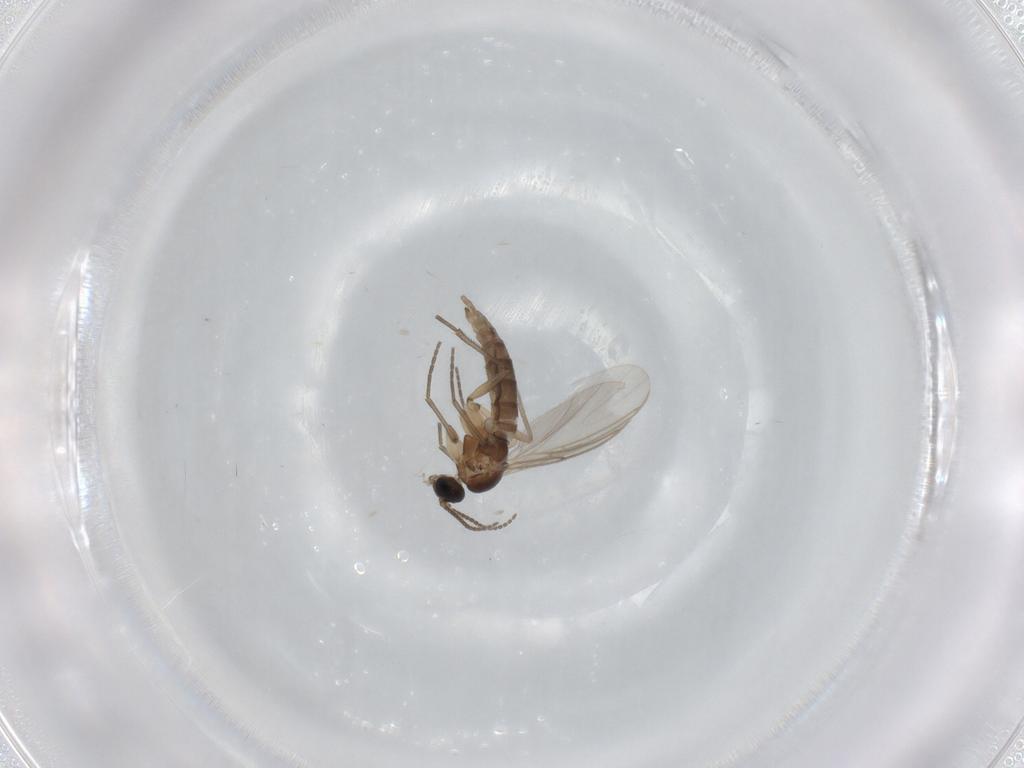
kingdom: Animalia
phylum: Arthropoda
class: Insecta
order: Diptera
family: Sciaridae
